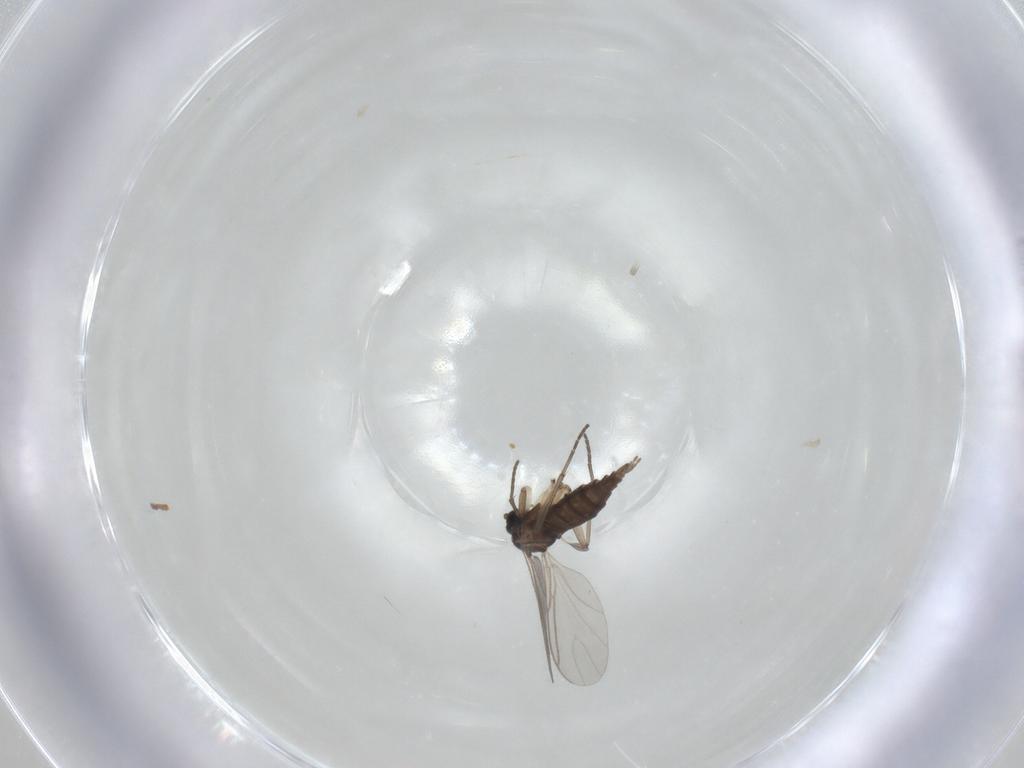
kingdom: Animalia
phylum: Arthropoda
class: Insecta
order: Diptera
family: Sciaridae
